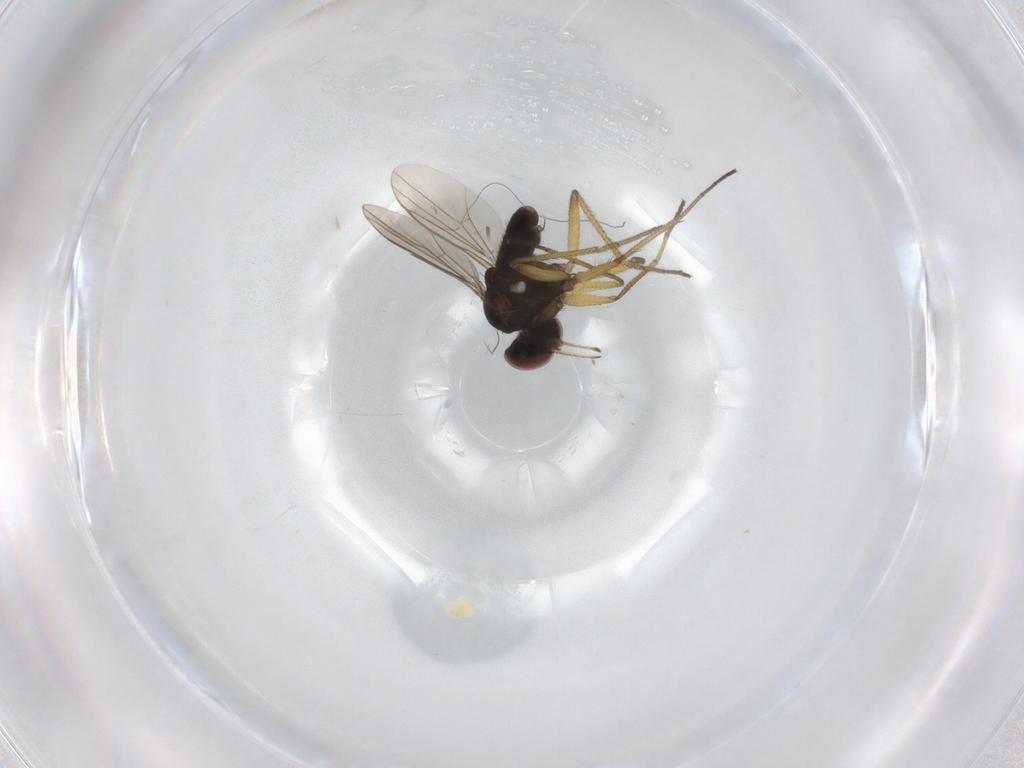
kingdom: Animalia
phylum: Arthropoda
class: Insecta
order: Diptera
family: Dolichopodidae
